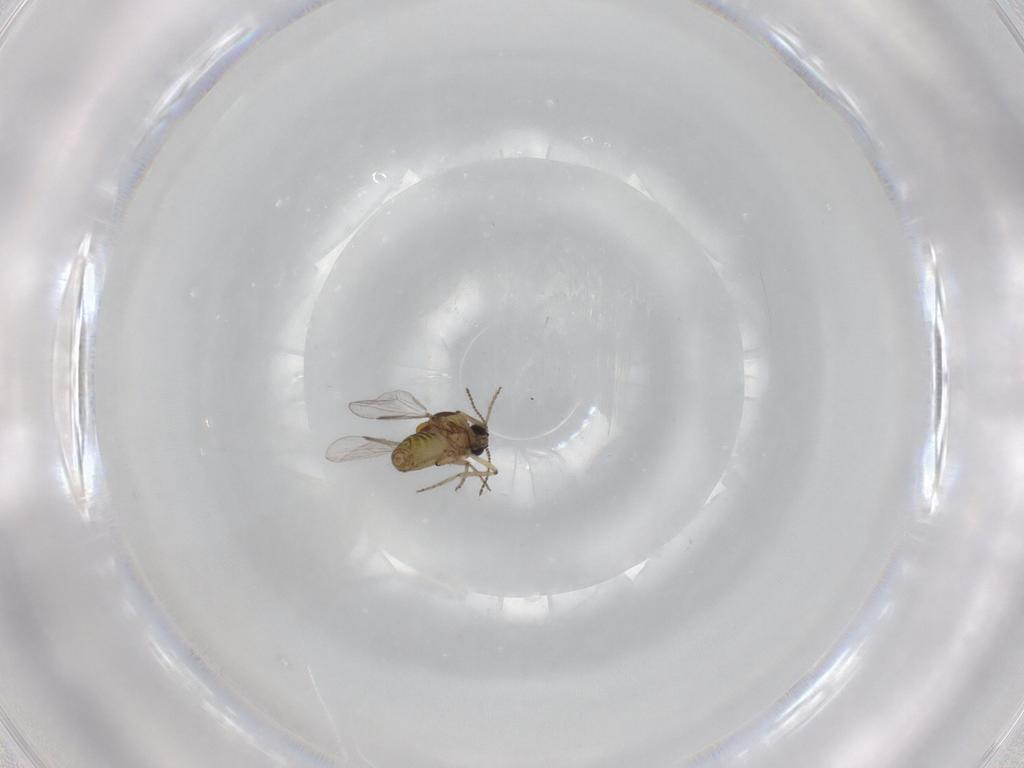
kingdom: Animalia
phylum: Arthropoda
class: Insecta
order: Diptera
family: Ceratopogonidae
